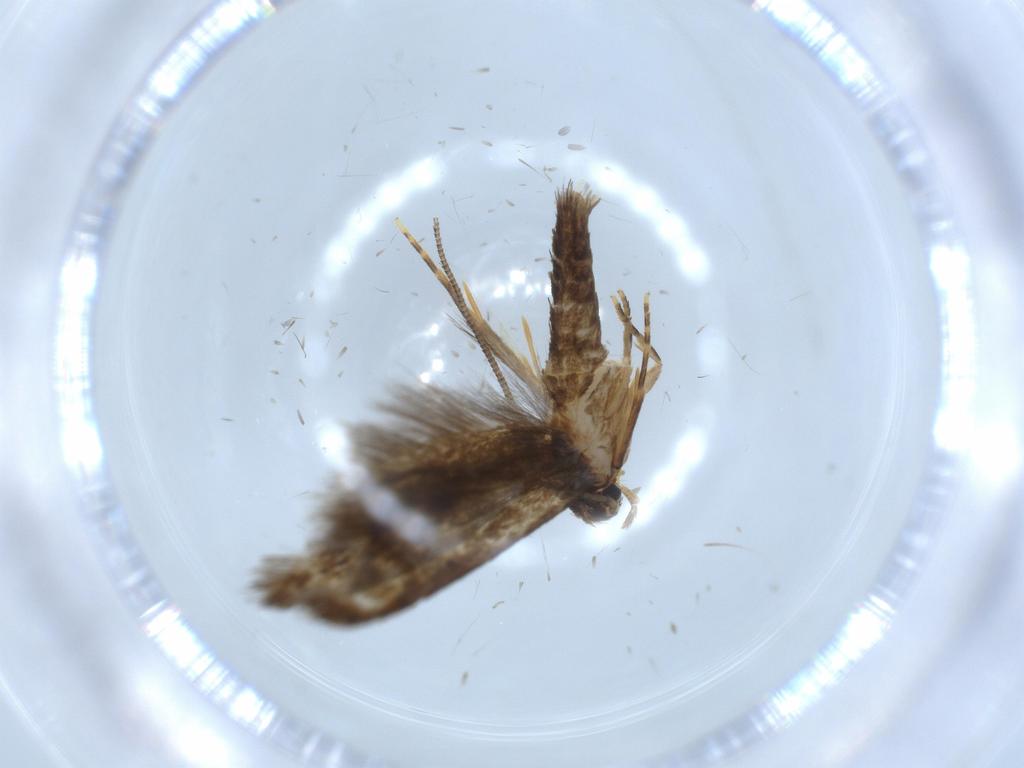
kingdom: Animalia
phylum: Arthropoda
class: Insecta
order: Lepidoptera
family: Tineidae
